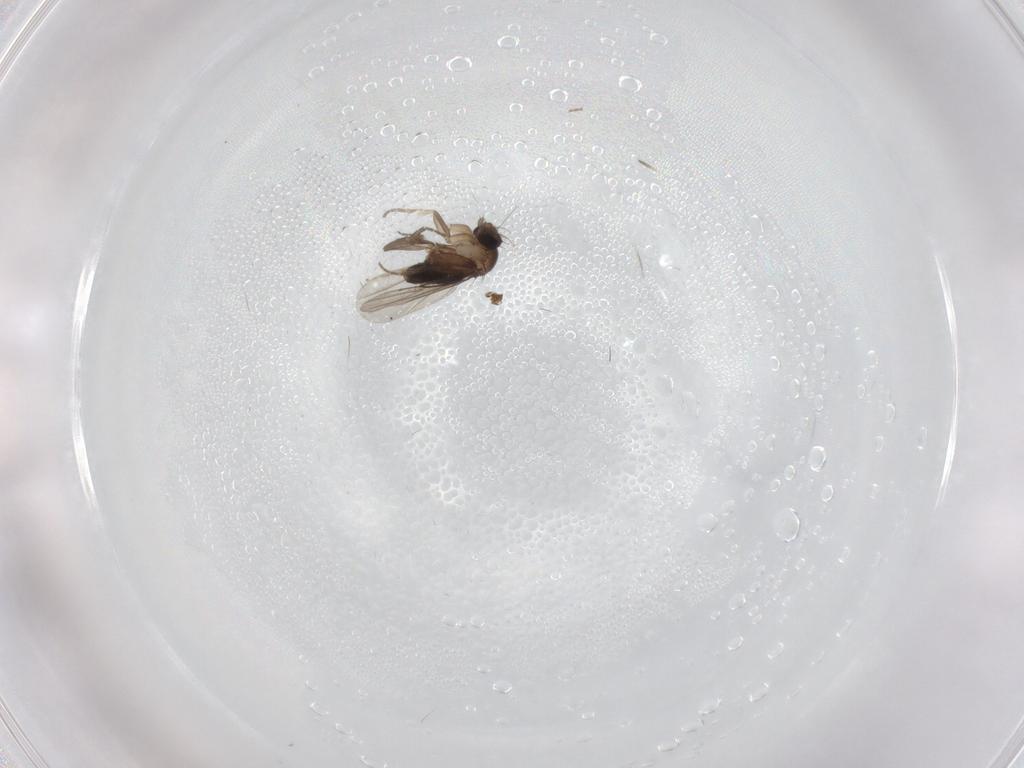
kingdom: Animalia
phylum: Arthropoda
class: Insecta
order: Diptera
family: Phoridae
